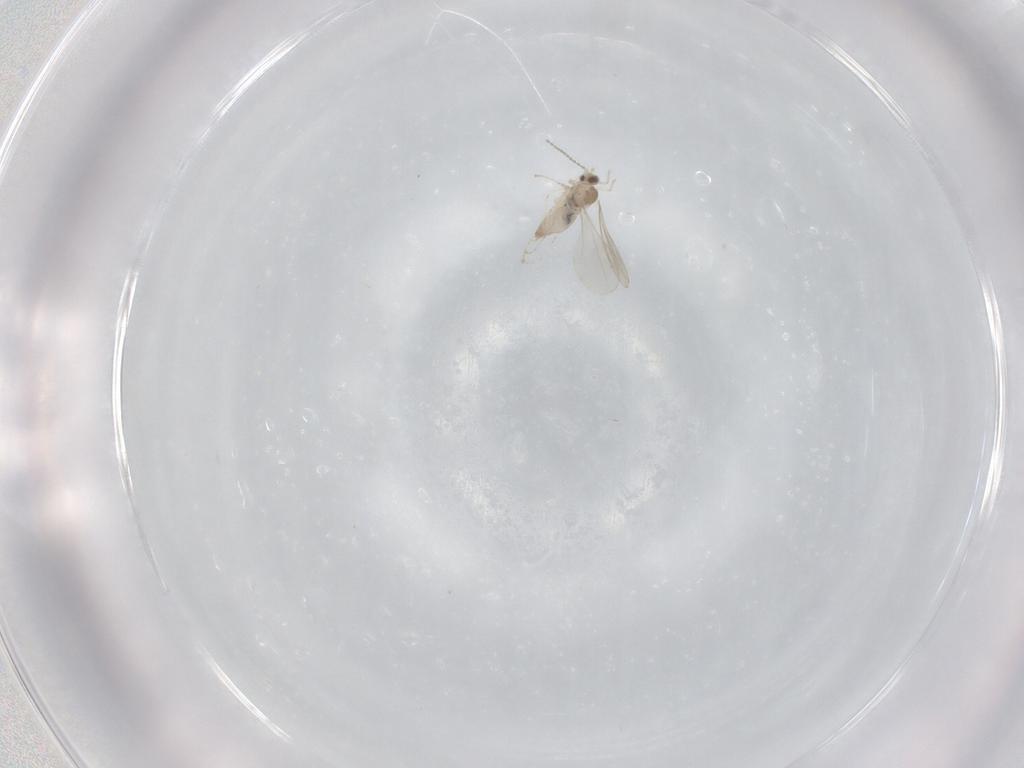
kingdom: Animalia
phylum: Arthropoda
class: Insecta
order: Diptera
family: Cecidomyiidae
